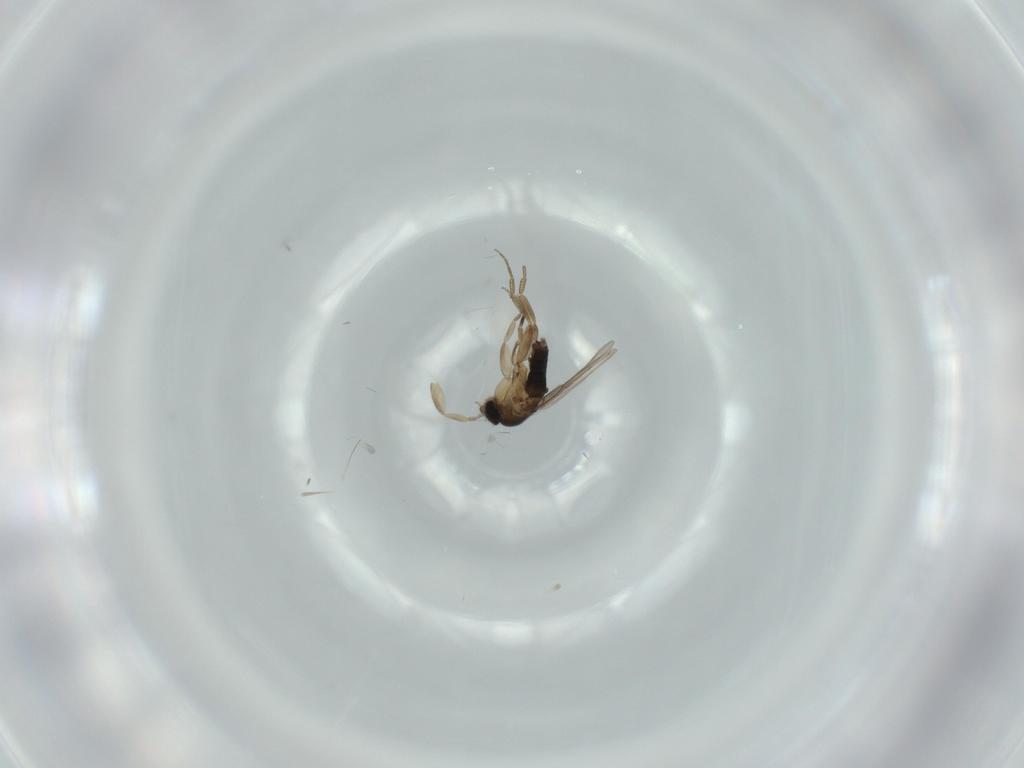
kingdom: Animalia
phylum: Arthropoda
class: Insecta
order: Diptera
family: Phoridae
